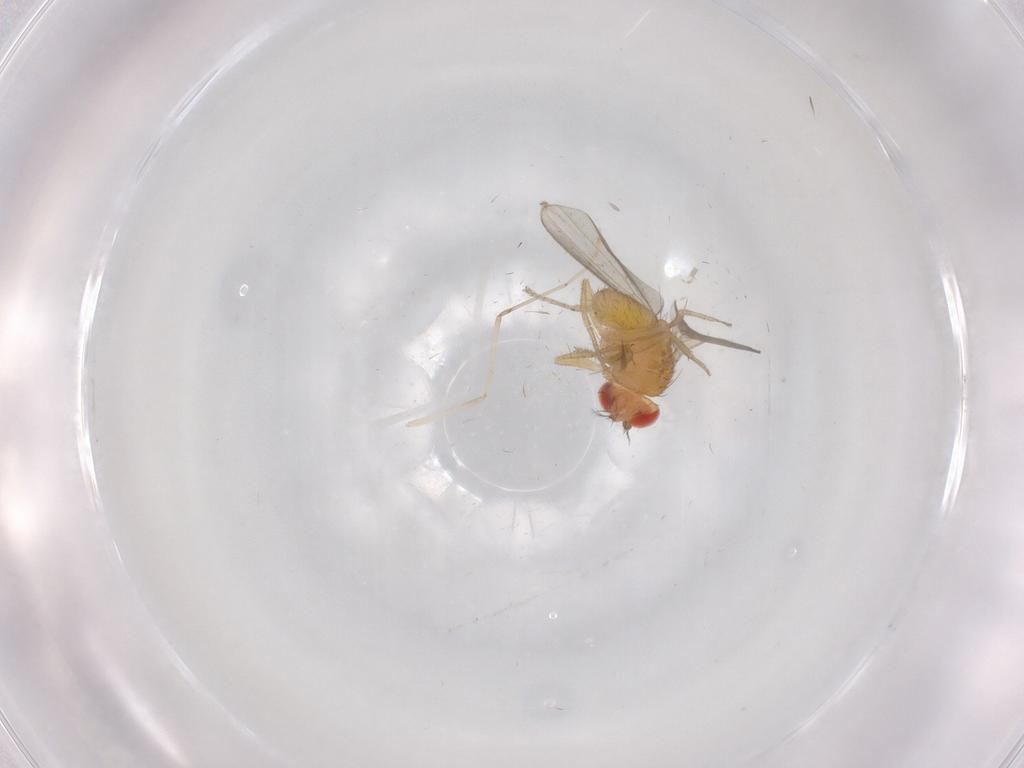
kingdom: Animalia
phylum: Arthropoda
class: Insecta
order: Diptera
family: Drosophilidae
